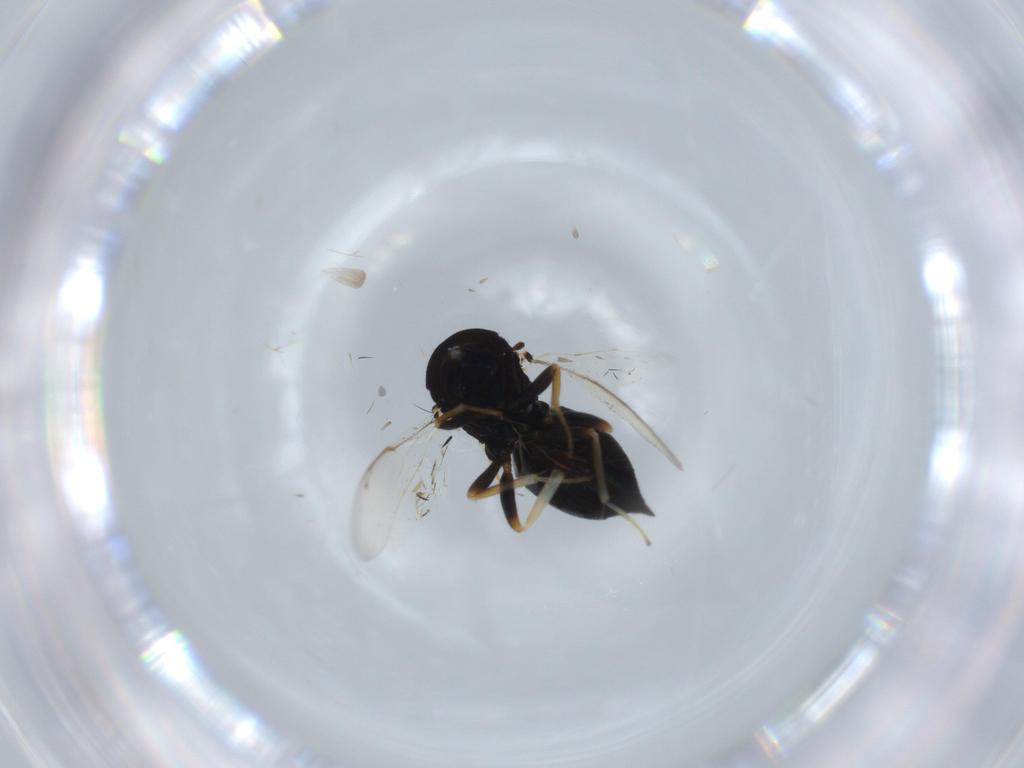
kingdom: Animalia
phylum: Arthropoda
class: Insecta
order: Hymenoptera
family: Pteromalidae
